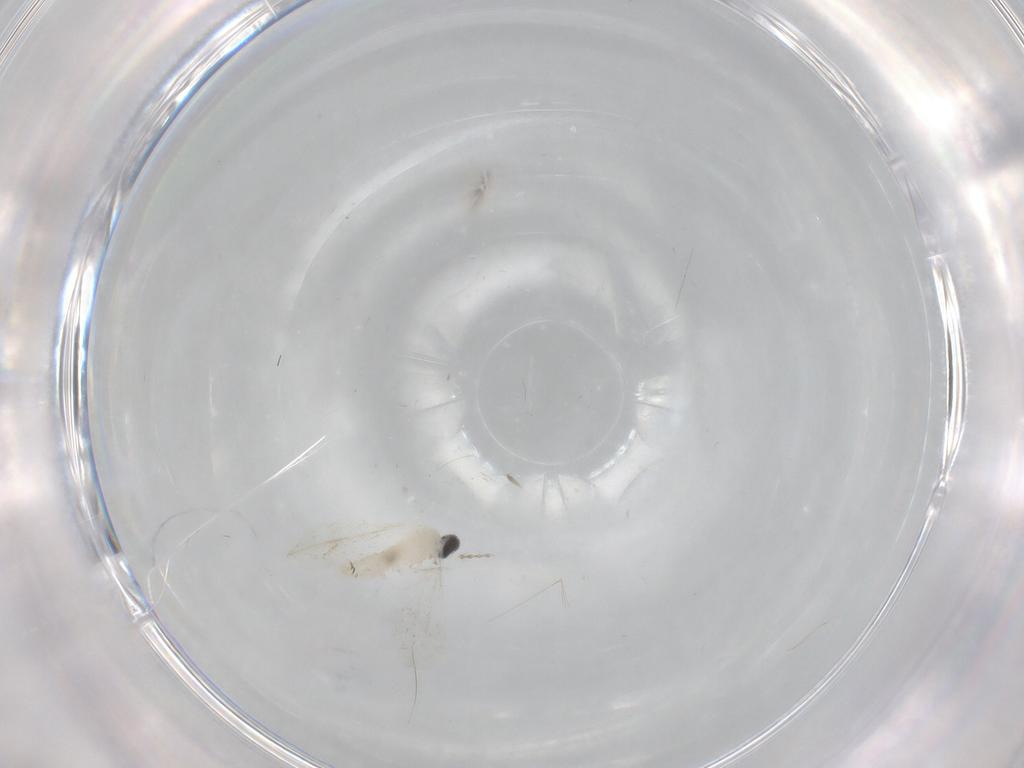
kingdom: Animalia
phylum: Arthropoda
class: Insecta
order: Diptera
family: Cecidomyiidae
